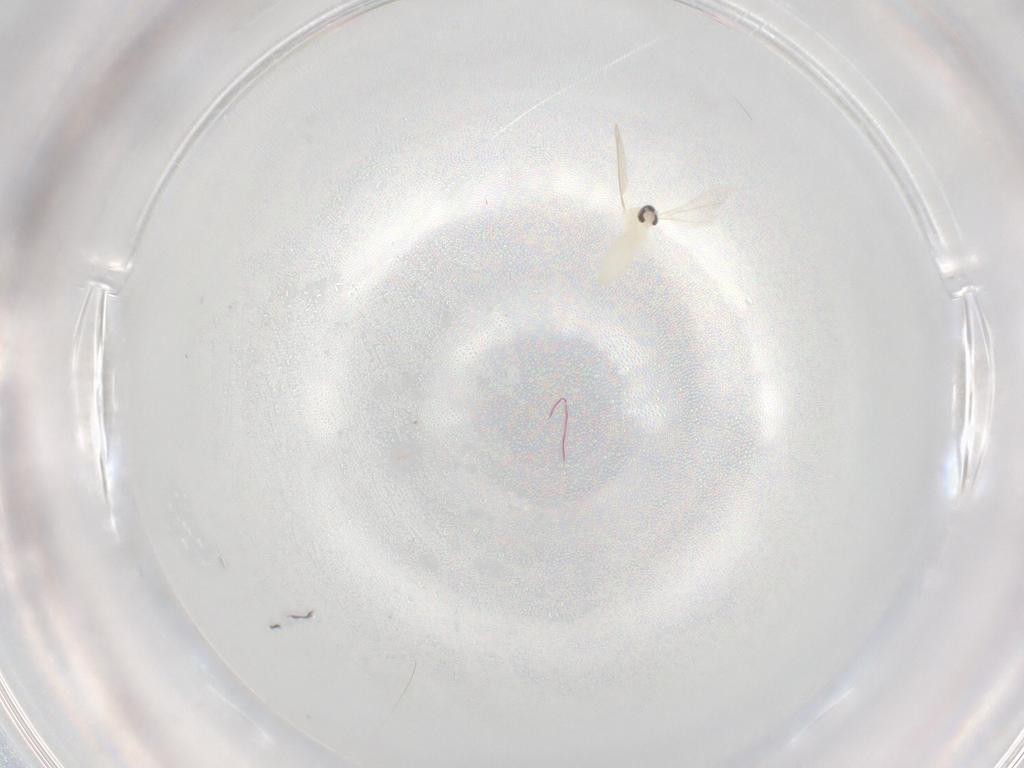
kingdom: Animalia
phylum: Arthropoda
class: Insecta
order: Diptera
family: Cecidomyiidae
